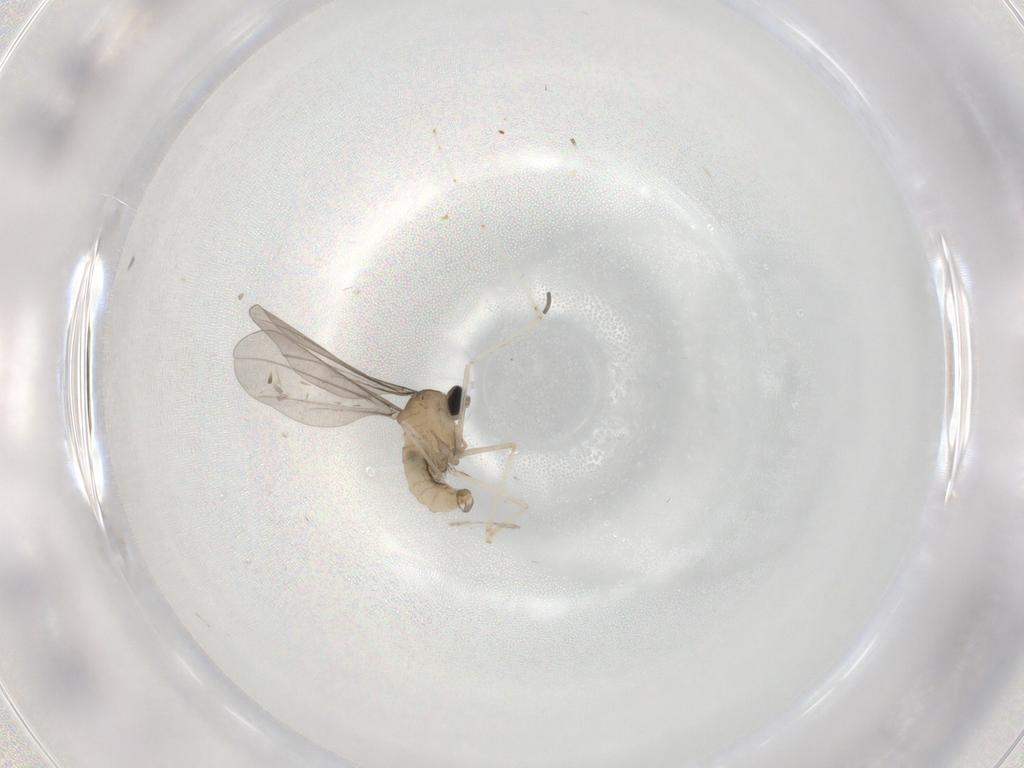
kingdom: Animalia
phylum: Arthropoda
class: Insecta
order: Diptera
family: Cecidomyiidae
